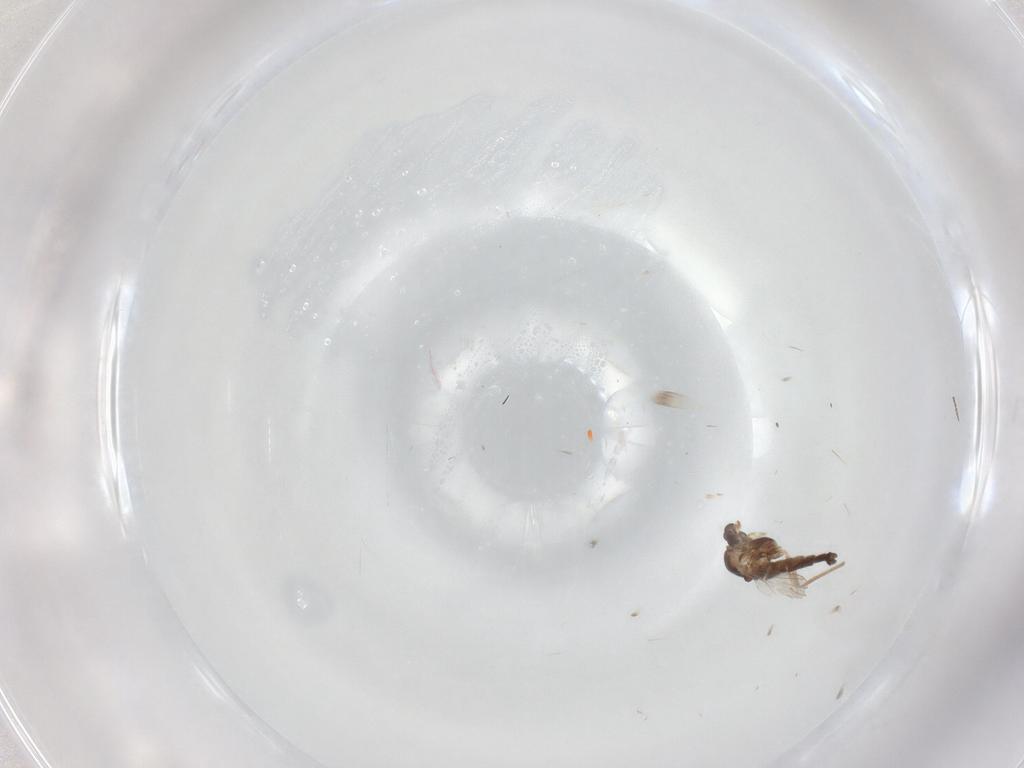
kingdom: Animalia
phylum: Arthropoda
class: Insecta
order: Diptera
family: Chironomidae
